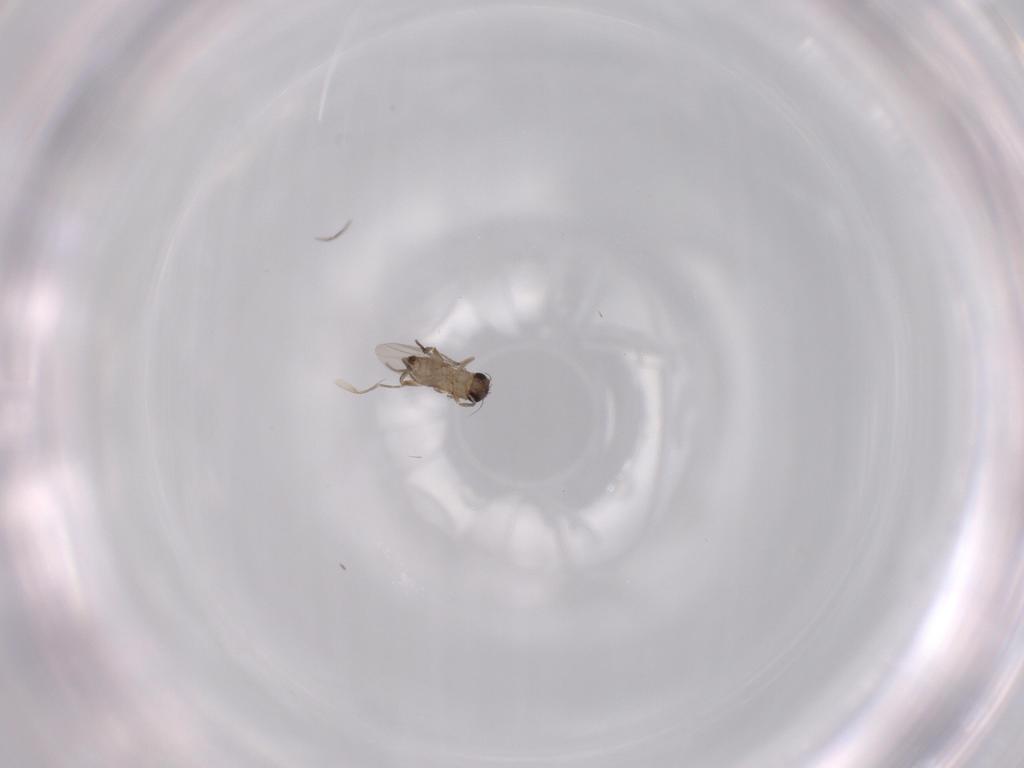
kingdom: Animalia
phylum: Arthropoda
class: Insecta
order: Diptera
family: Phoridae
